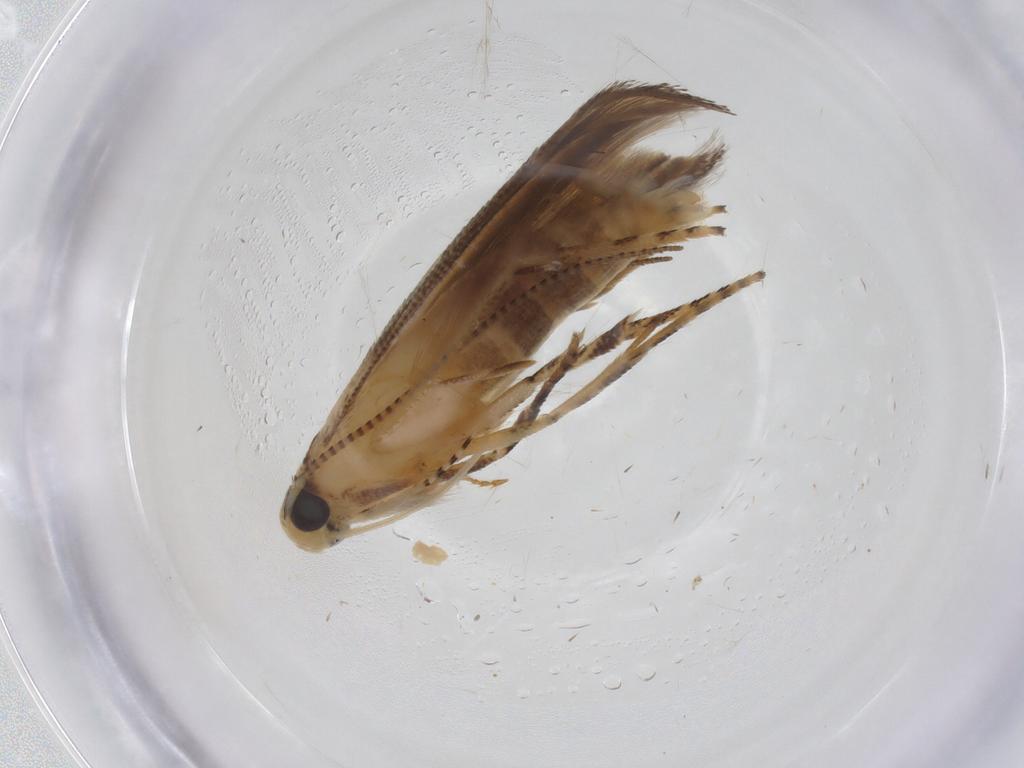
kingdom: Animalia
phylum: Arthropoda
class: Insecta
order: Lepidoptera
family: Momphidae
